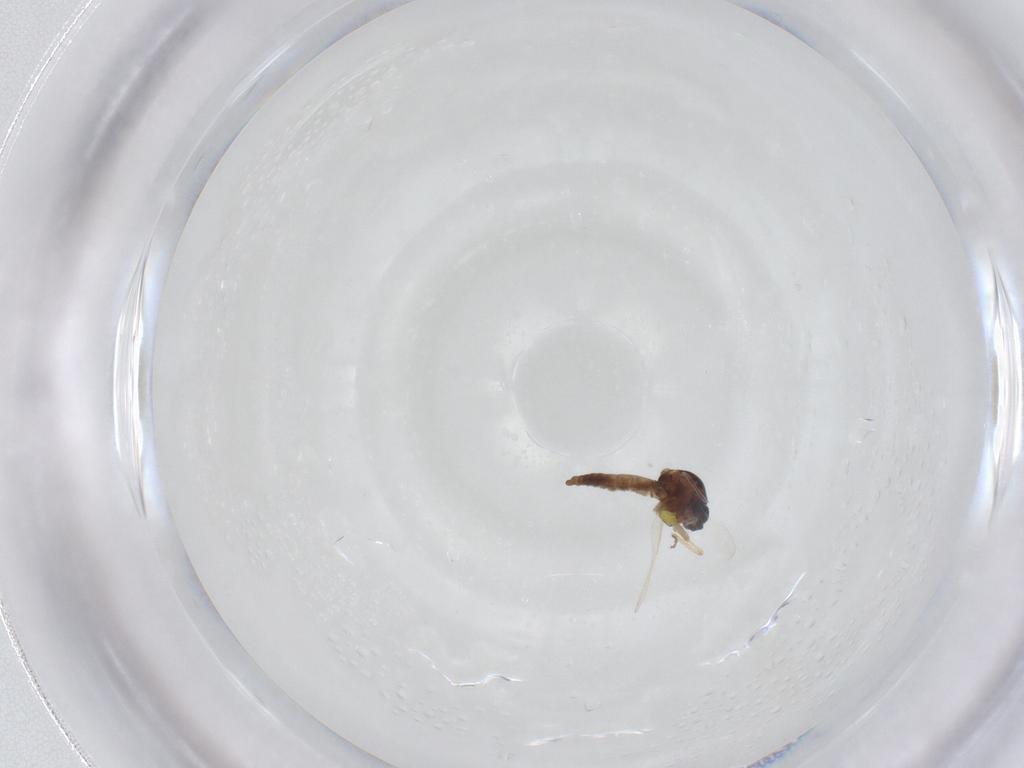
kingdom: Animalia
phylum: Arthropoda
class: Insecta
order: Diptera
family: Ceratopogonidae
